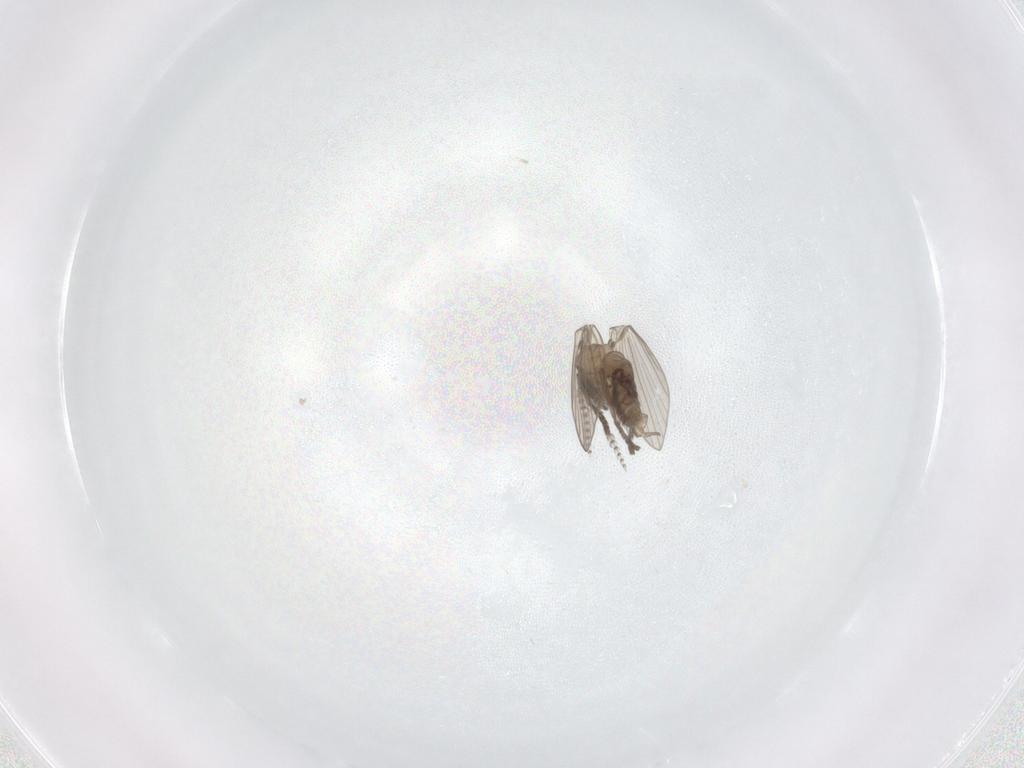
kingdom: Animalia
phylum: Arthropoda
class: Insecta
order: Diptera
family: Psychodidae
